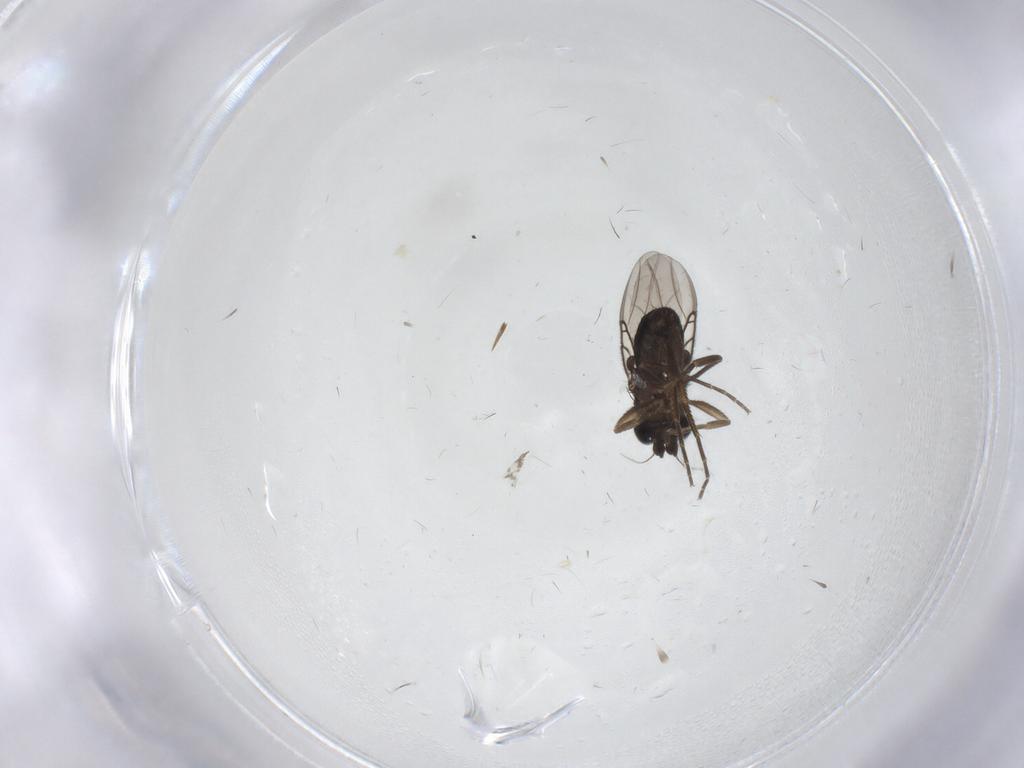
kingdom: Animalia
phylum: Arthropoda
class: Insecta
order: Diptera
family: Phoridae
